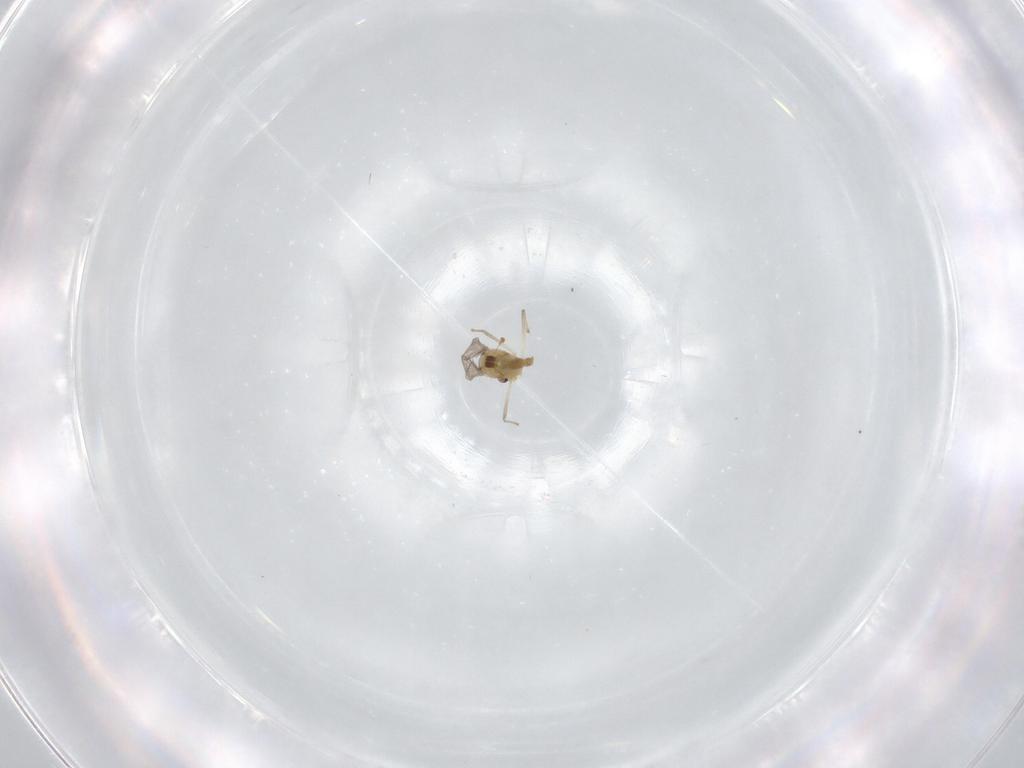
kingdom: Animalia
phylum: Arthropoda
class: Insecta
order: Diptera
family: Chironomidae
